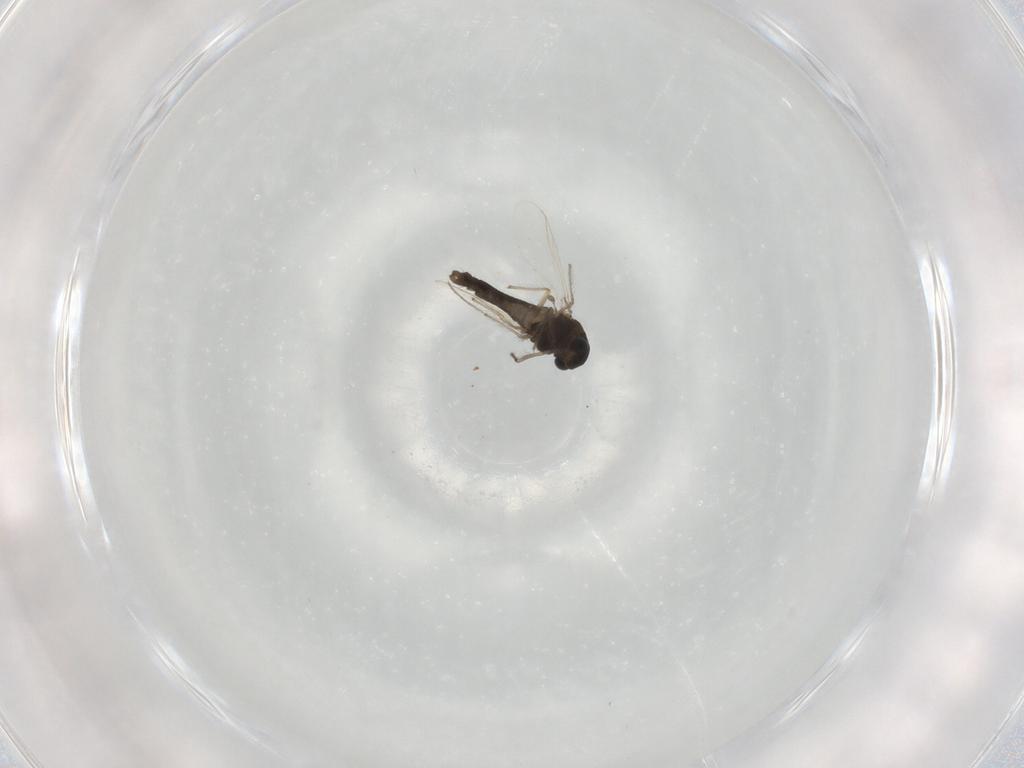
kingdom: Animalia
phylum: Arthropoda
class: Insecta
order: Diptera
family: Chironomidae
